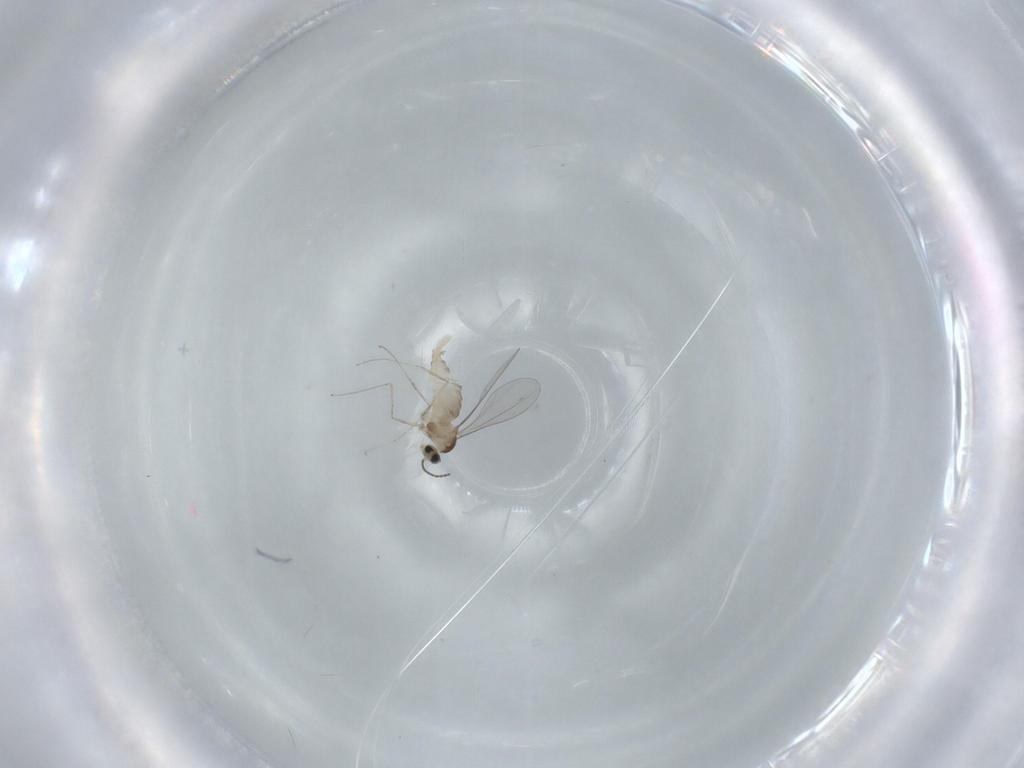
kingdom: Animalia
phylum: Arthropoda
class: Insecta
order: Diptera
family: Cecidomyiidae
